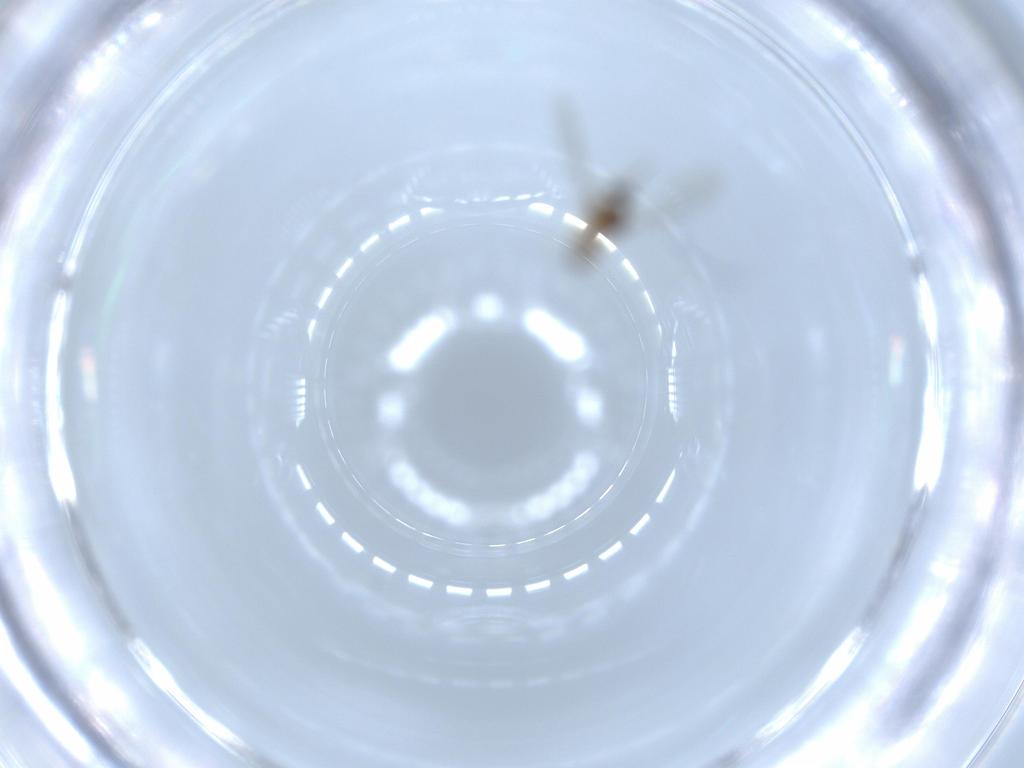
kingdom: Animalia
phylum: Arthropoda
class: Insecta
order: Diptera
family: Cecidomyiidae
